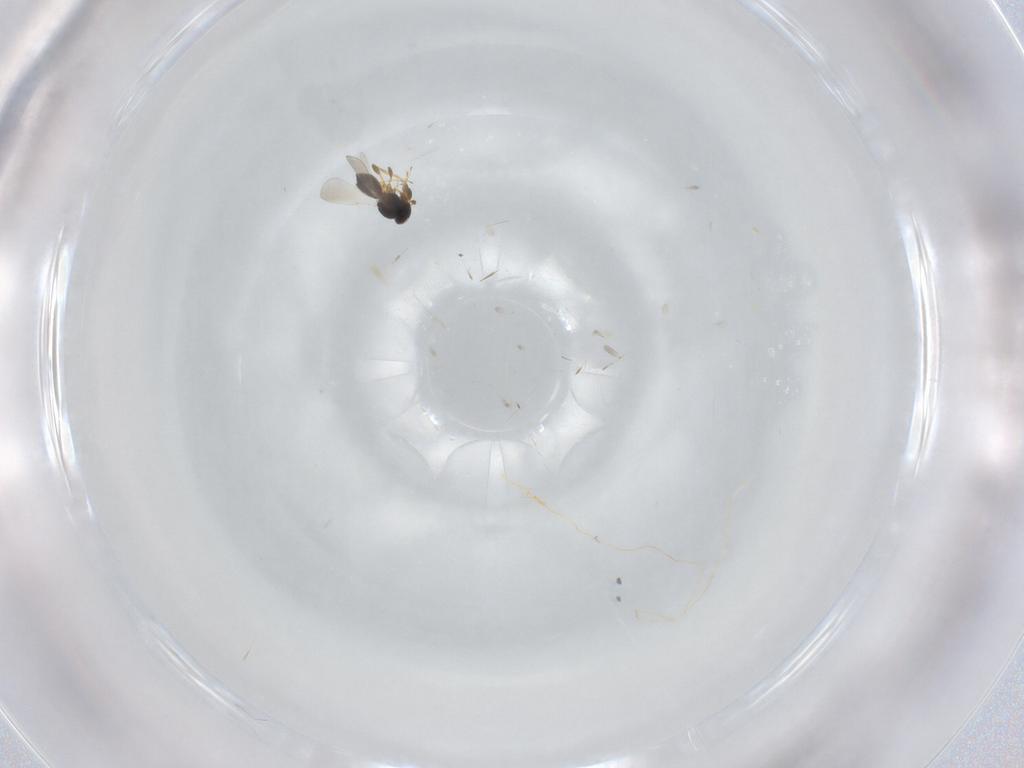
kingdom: Animalia
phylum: Arthropoda
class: Insecta
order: Hymenoptera
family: Platygastridae
